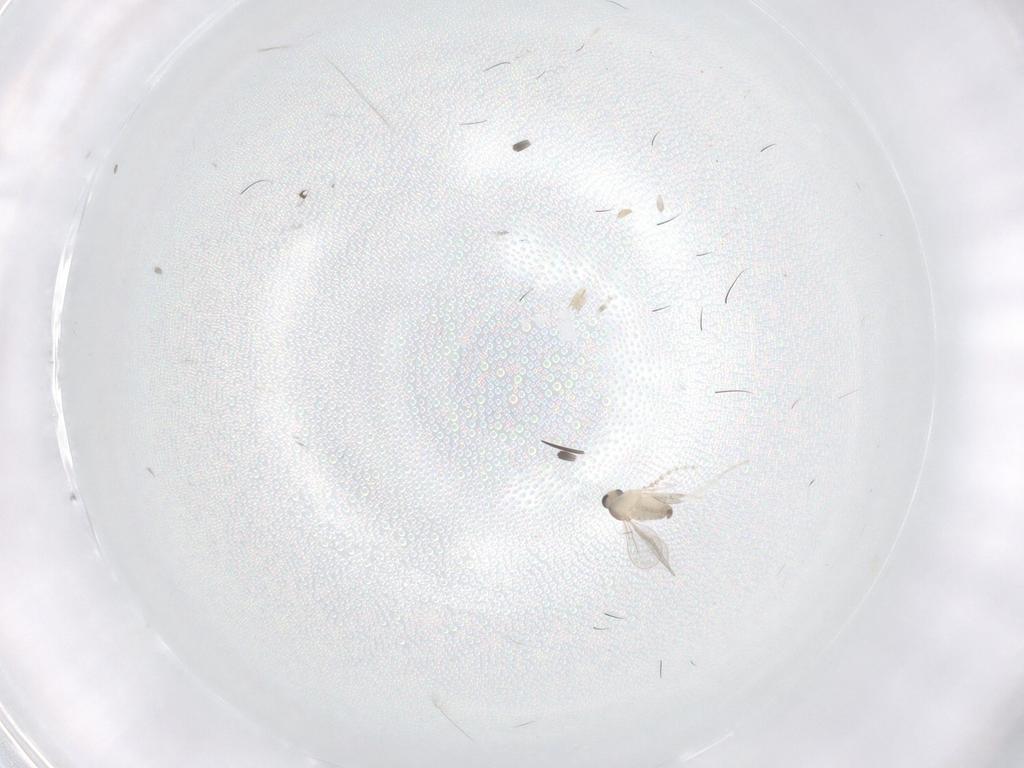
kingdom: Animalia
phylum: Arthropoda
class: Insecta
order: Diptera
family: Cecidomyiidae
